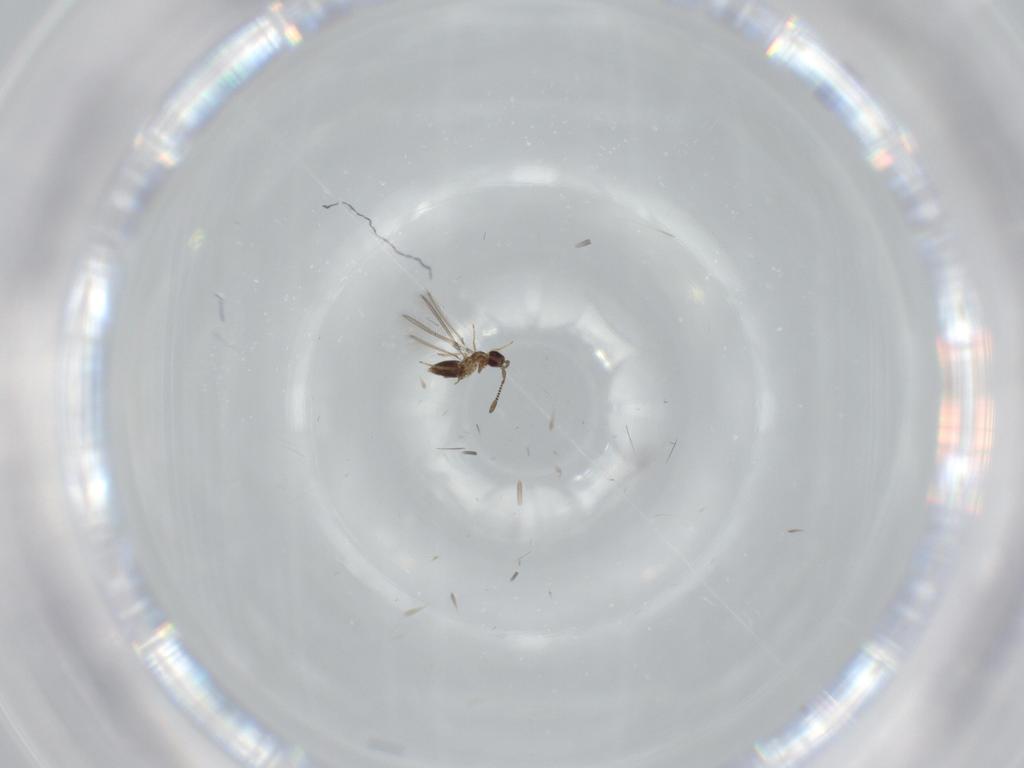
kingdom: Animalia
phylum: Arthropoda
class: Insecta
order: Hymenoptera
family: Mymaridae
